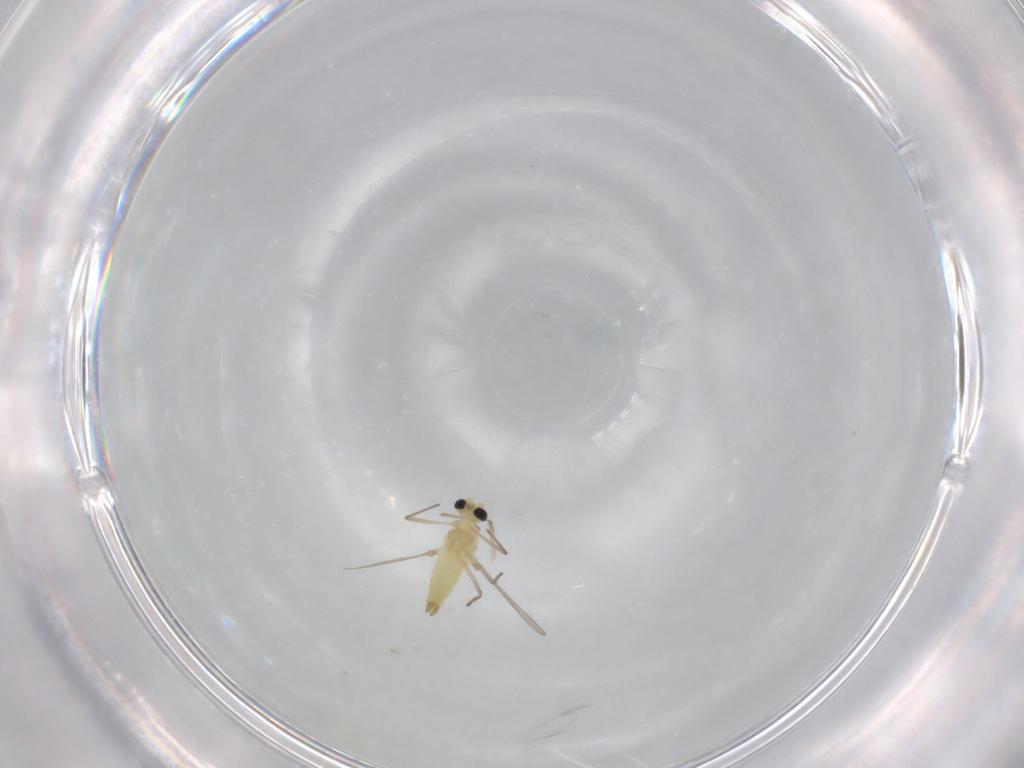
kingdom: Animalia
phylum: Arthropoda
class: Insecta
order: Diptera
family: Chironomidae
